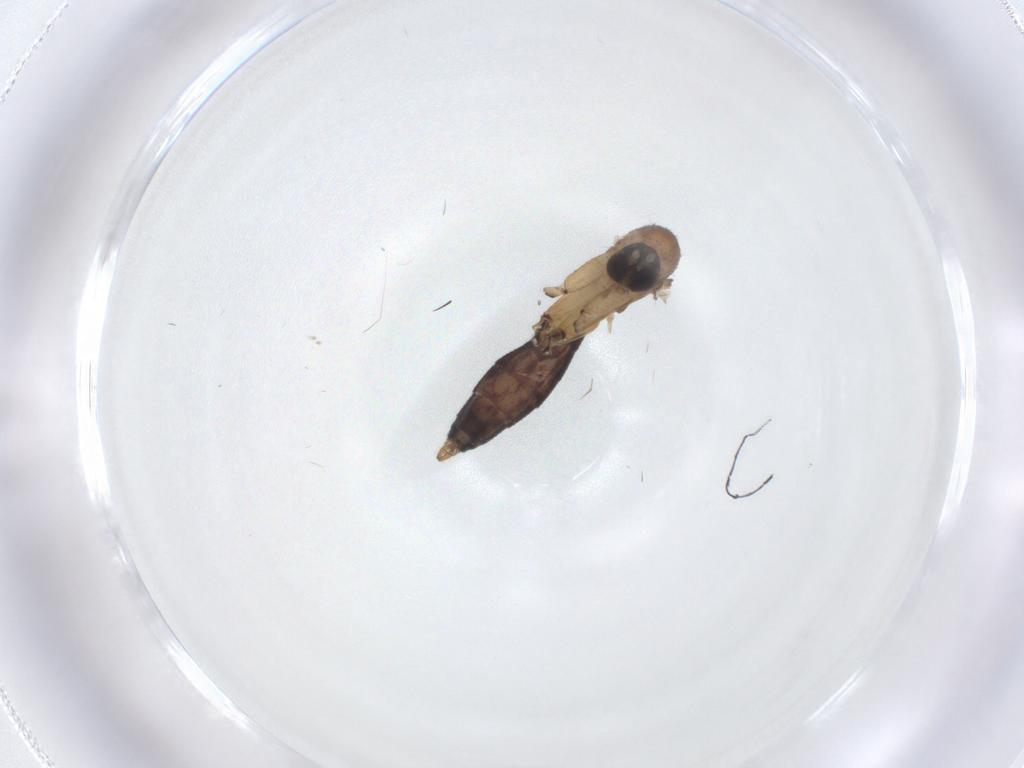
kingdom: Animalia
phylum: Arthropoda
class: Insecta
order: Diptera
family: Mycetophilidae
